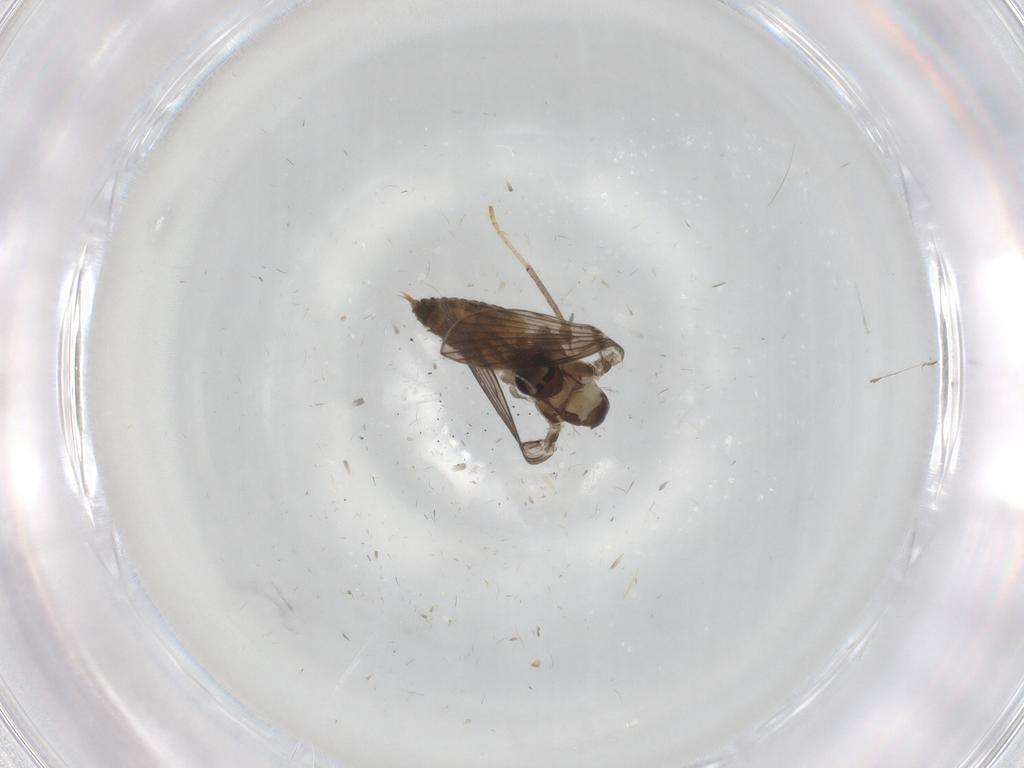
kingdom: Animalia
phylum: Arthropoda
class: Insecta
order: Diptera
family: Psychodidae
